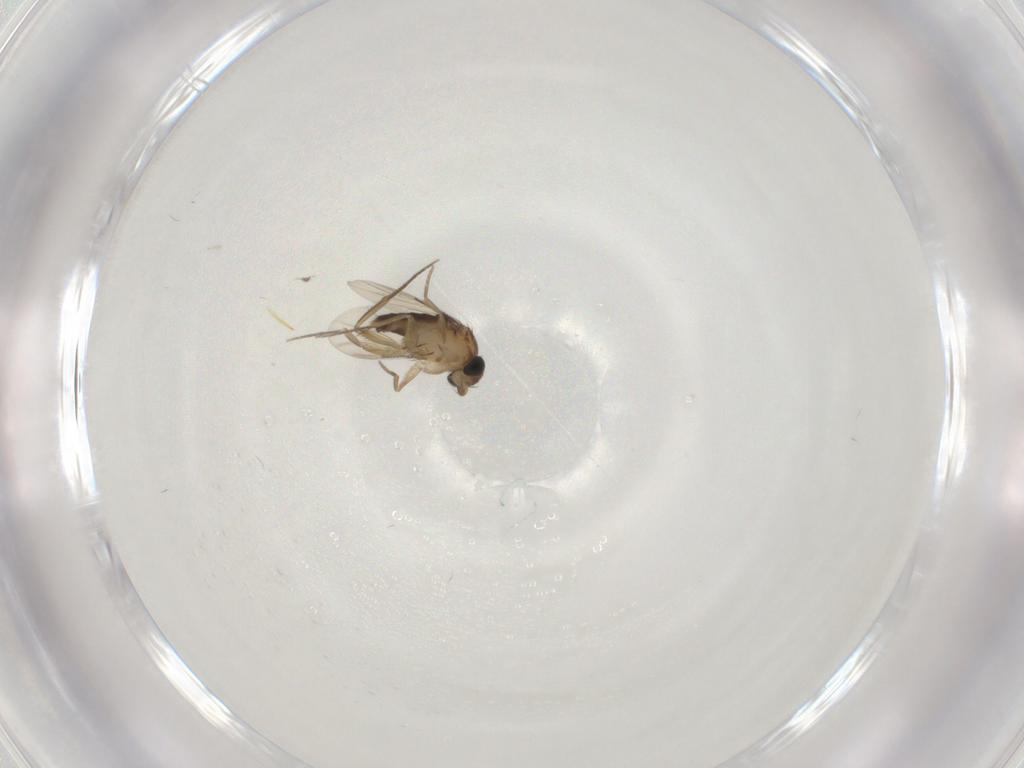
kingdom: Animalia
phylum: Arthropoda
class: Insecta
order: Diptera
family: Phoridae
